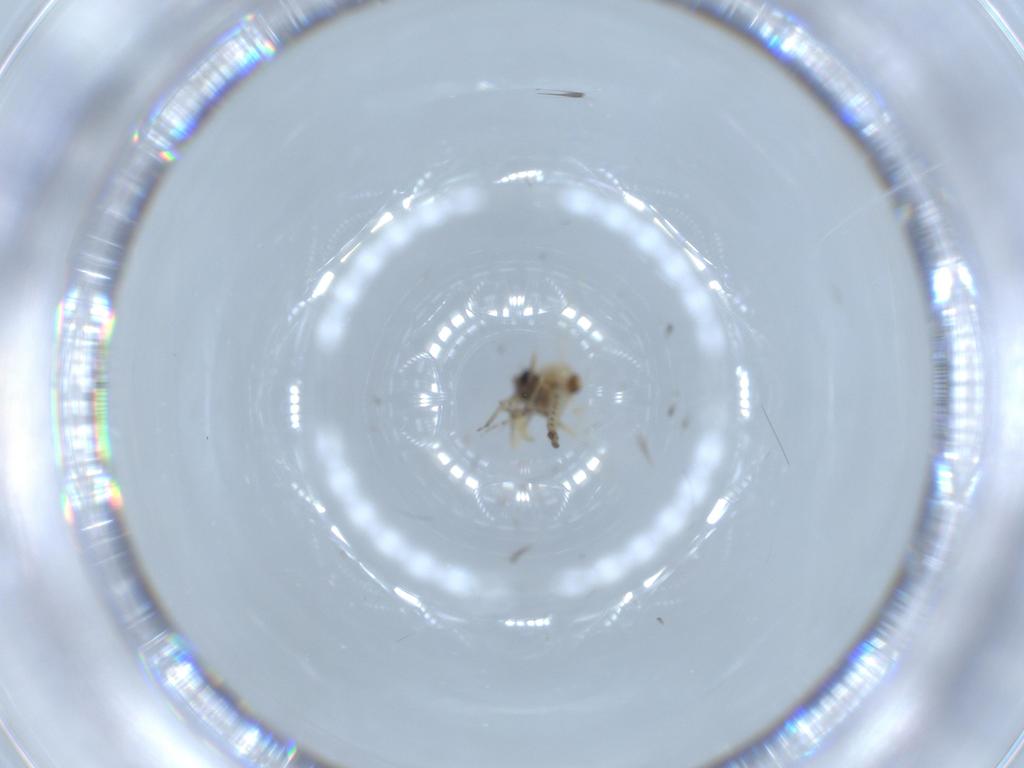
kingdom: Animalia
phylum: Arthropoda
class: Insecta
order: Diptera
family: Ceratopogonidae
